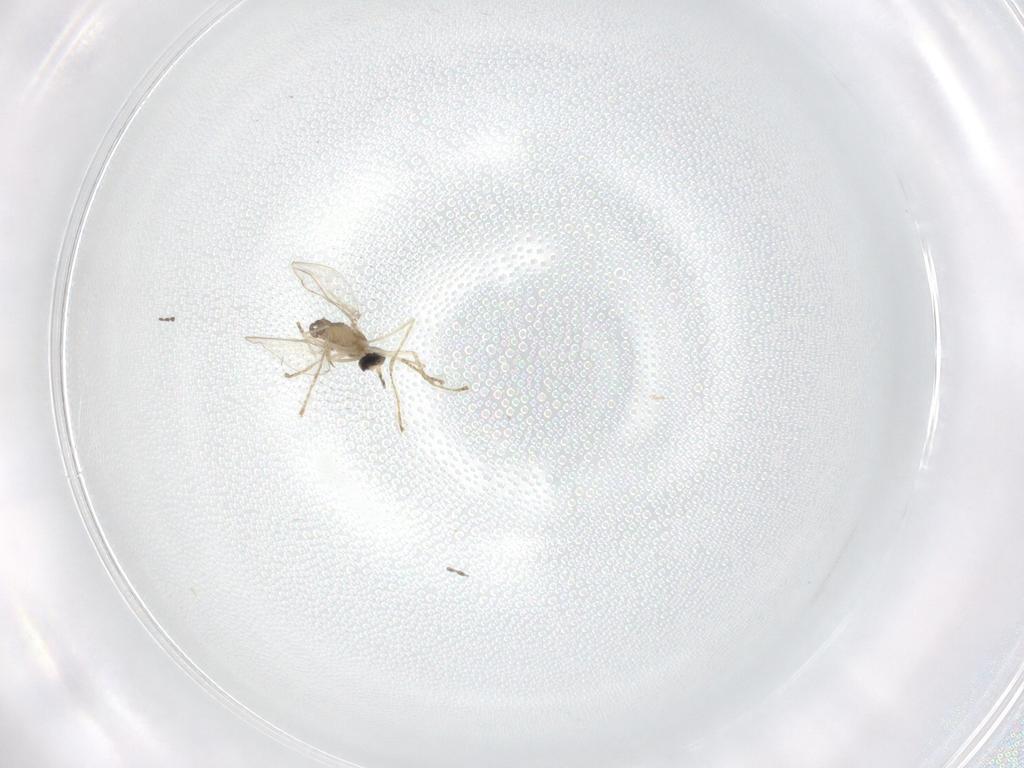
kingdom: Animalia
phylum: Arthropoda
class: Insecta
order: Diptera
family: Cecidomyiidae
